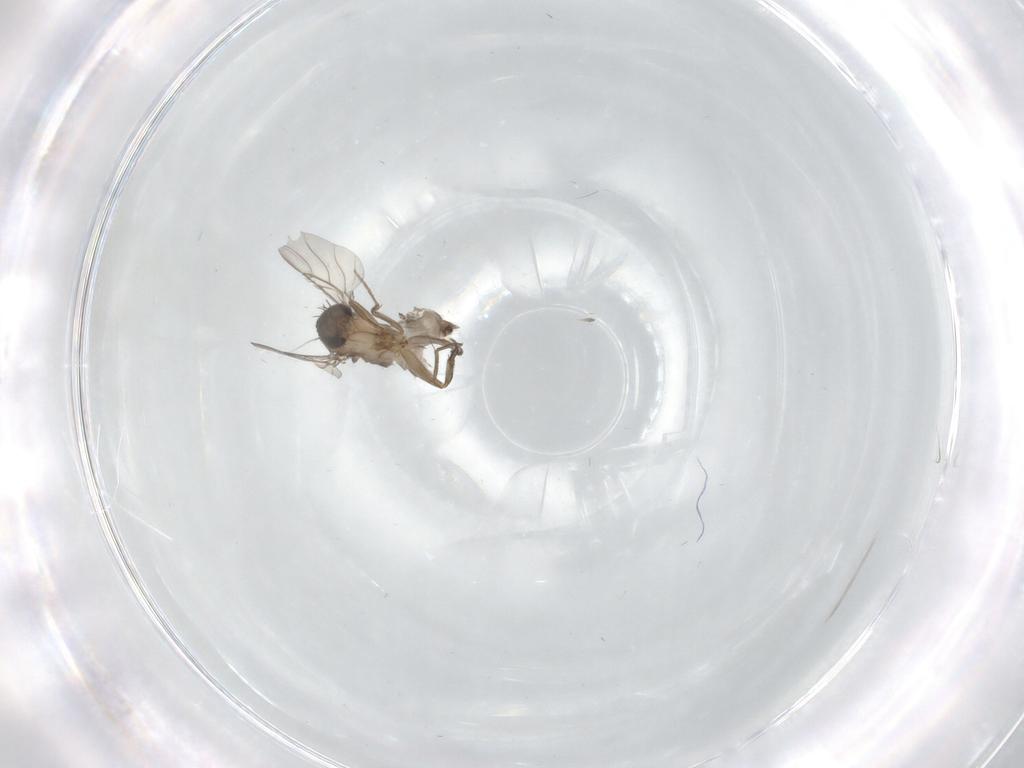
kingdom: Animalia
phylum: Arthropoda
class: Insecta
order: Diptera
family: Phoridae
